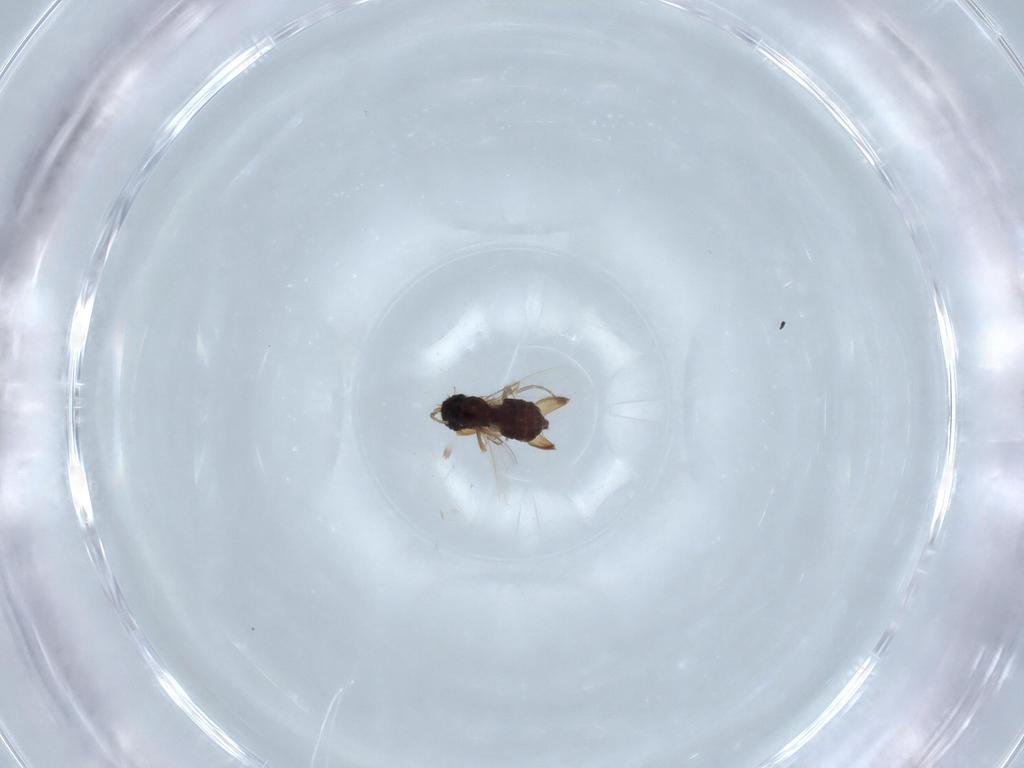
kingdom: Animalia
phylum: Arthropoda
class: Insecta
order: Diptera
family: Phoridae
